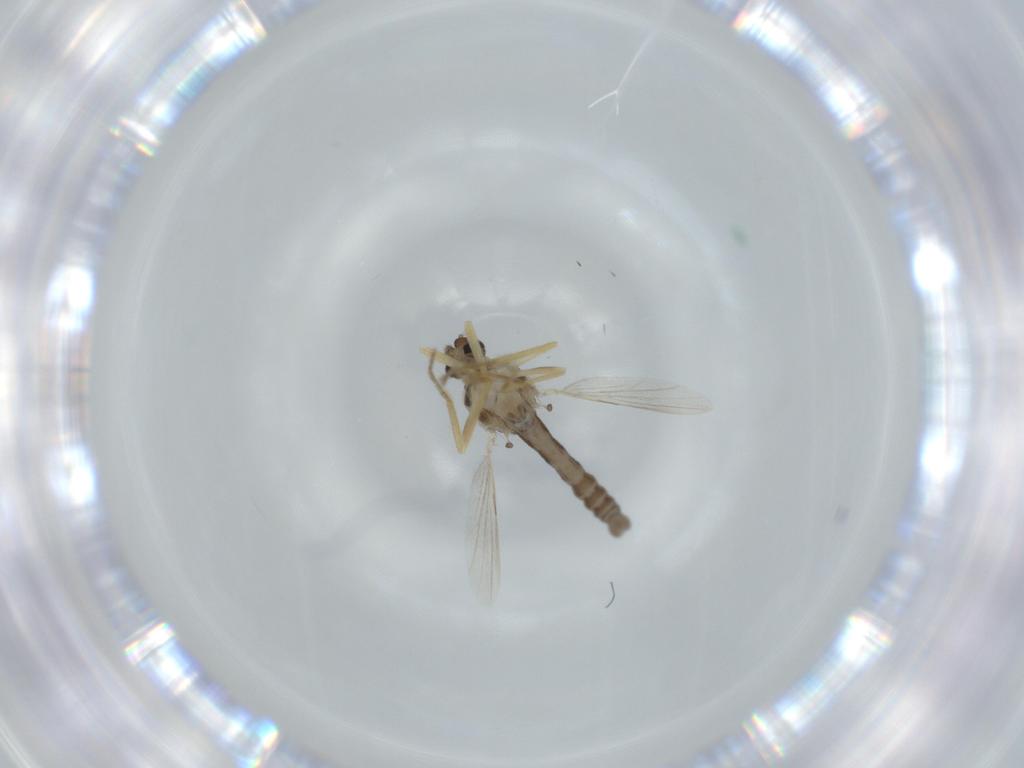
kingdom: Animalia
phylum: Arthropoda
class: Insecta
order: Diptera
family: Ceratopogonidae
